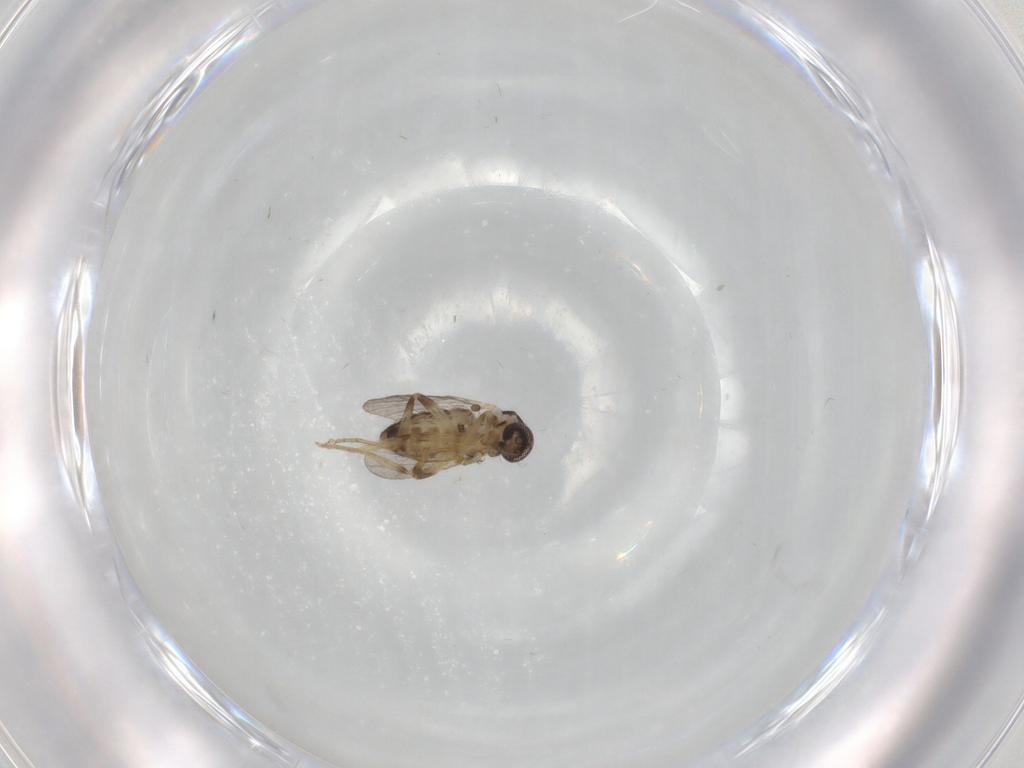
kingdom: Animalia
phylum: Arthropoda
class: Insecta
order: Diptera
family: Ceratopogonidae
